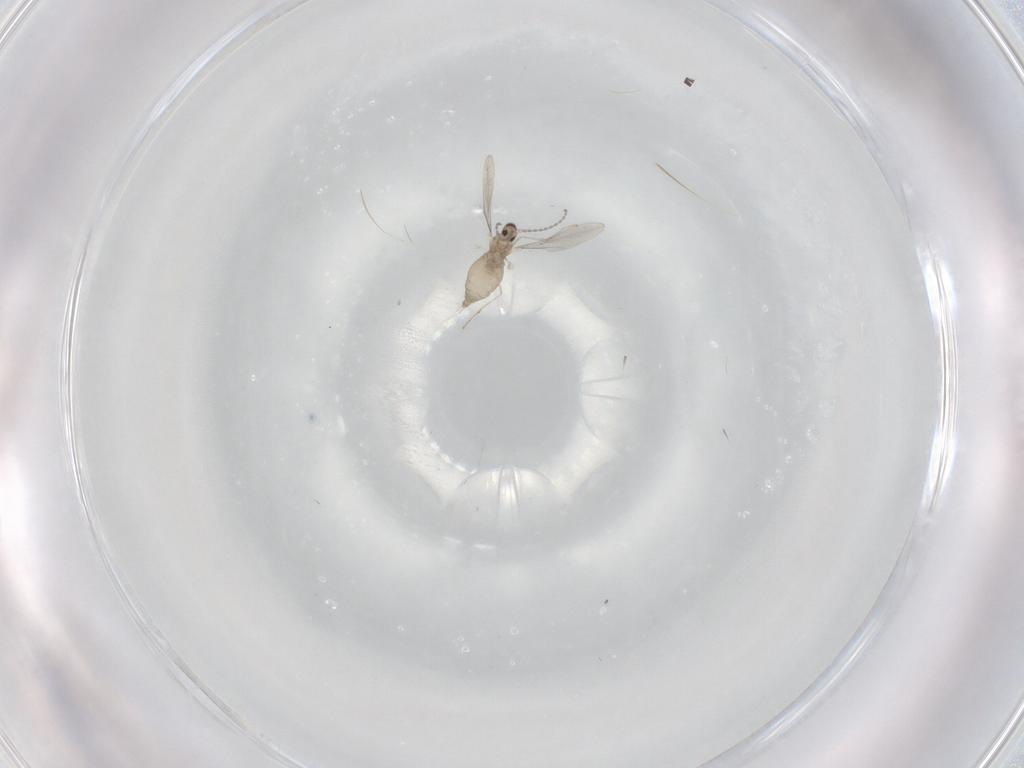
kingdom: Animalia
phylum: Arthropoda
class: Insecta
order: Diptera
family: Cecidomyiidae
